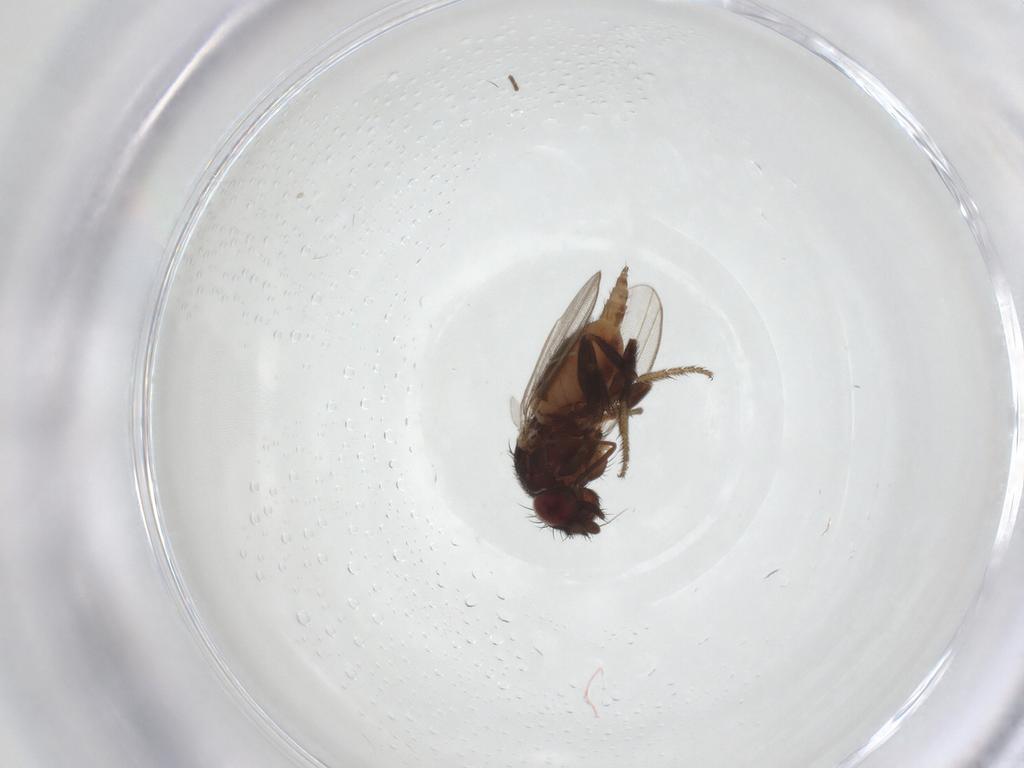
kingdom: Animalia
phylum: Arthropoda
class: Insecta
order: Diptera
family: Milichiidae
